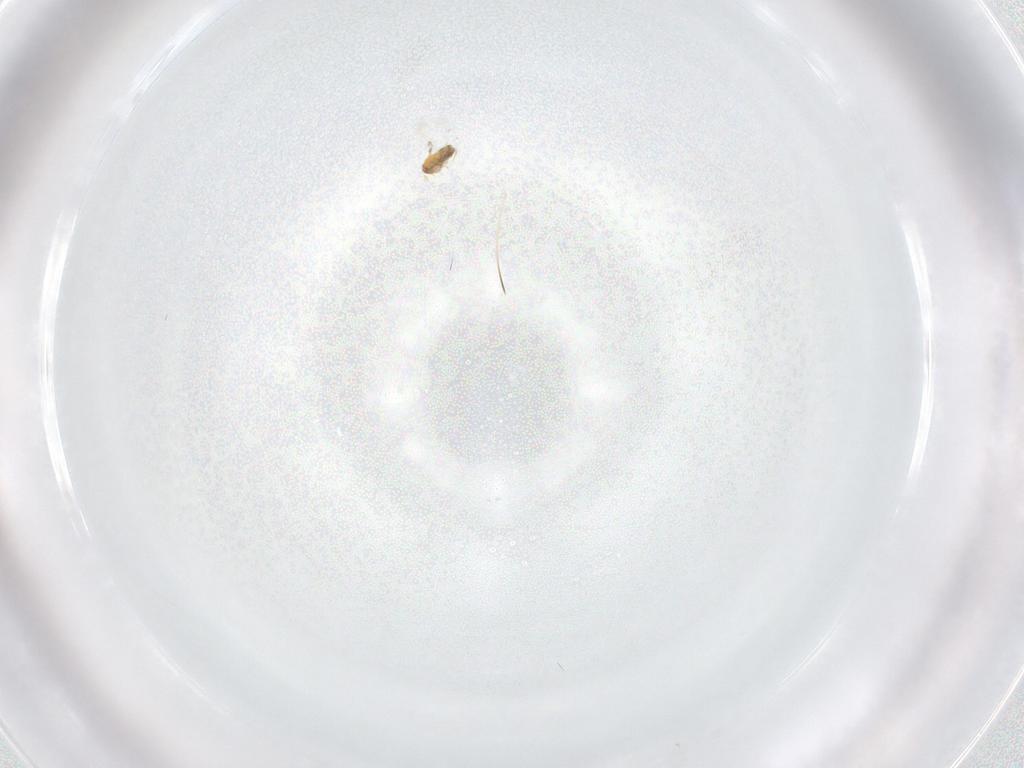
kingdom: Animalia
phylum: Arthropoda
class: Insecta
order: Hymenoptera
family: Trichogrammatidae
